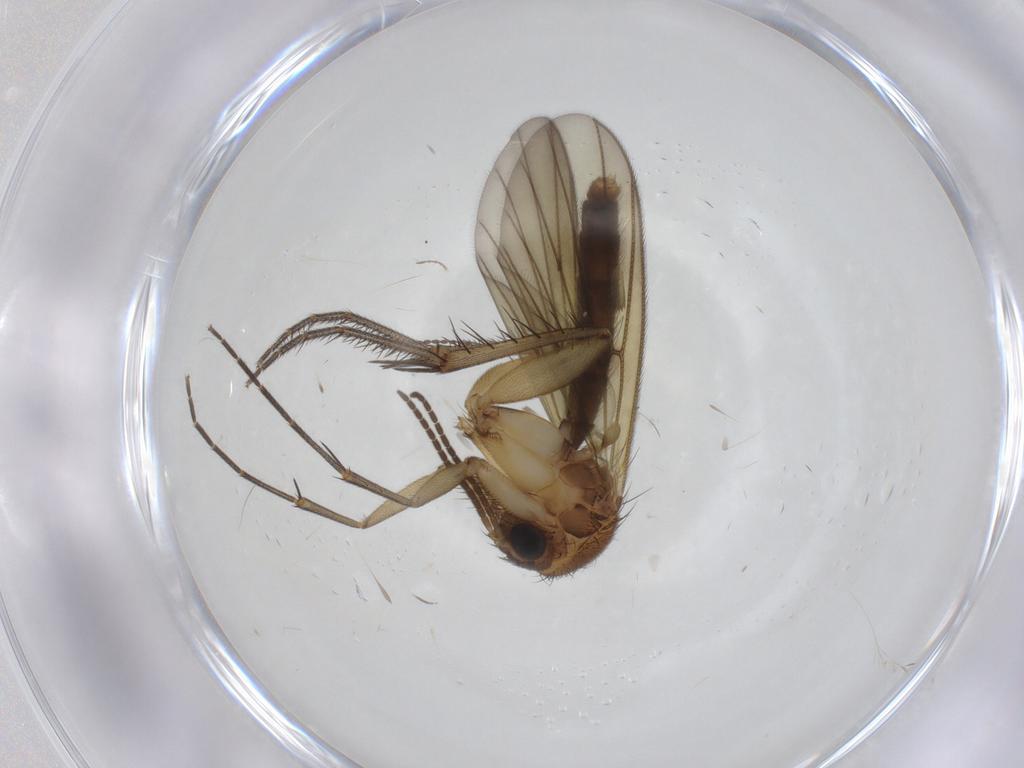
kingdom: Animalia
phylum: Arthropoda
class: Insecta
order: Diptera
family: Mycetophilidae
